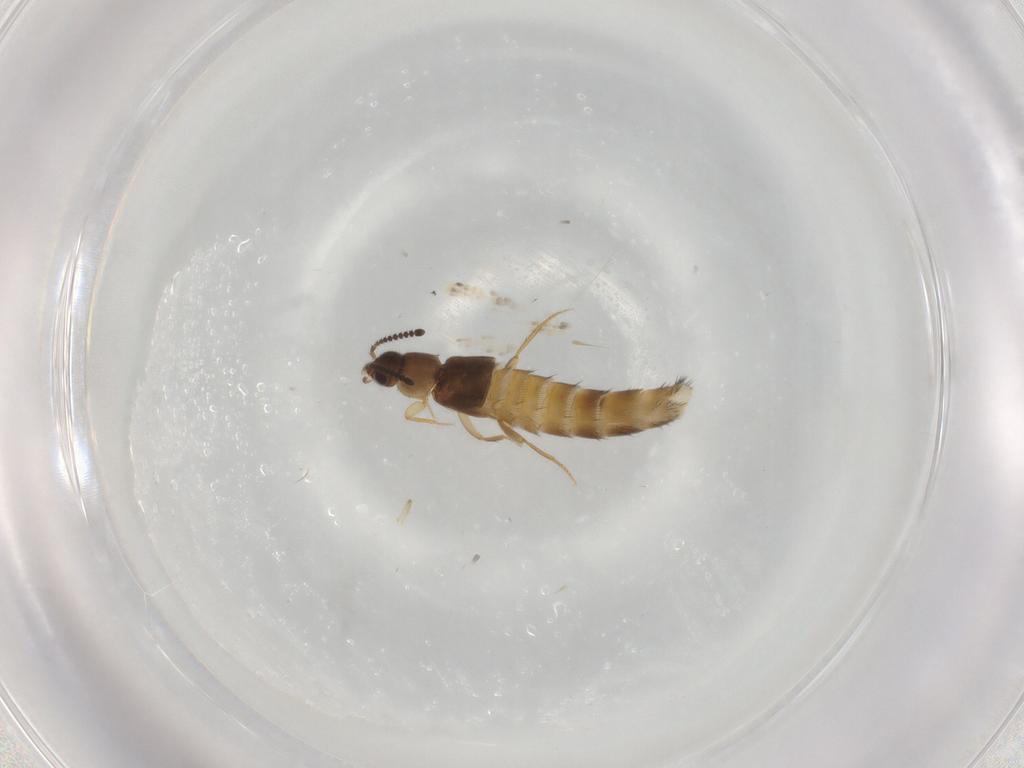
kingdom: Animalia
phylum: Arthropoda
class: Insecta
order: Coleoptera
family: Staphylinidae
